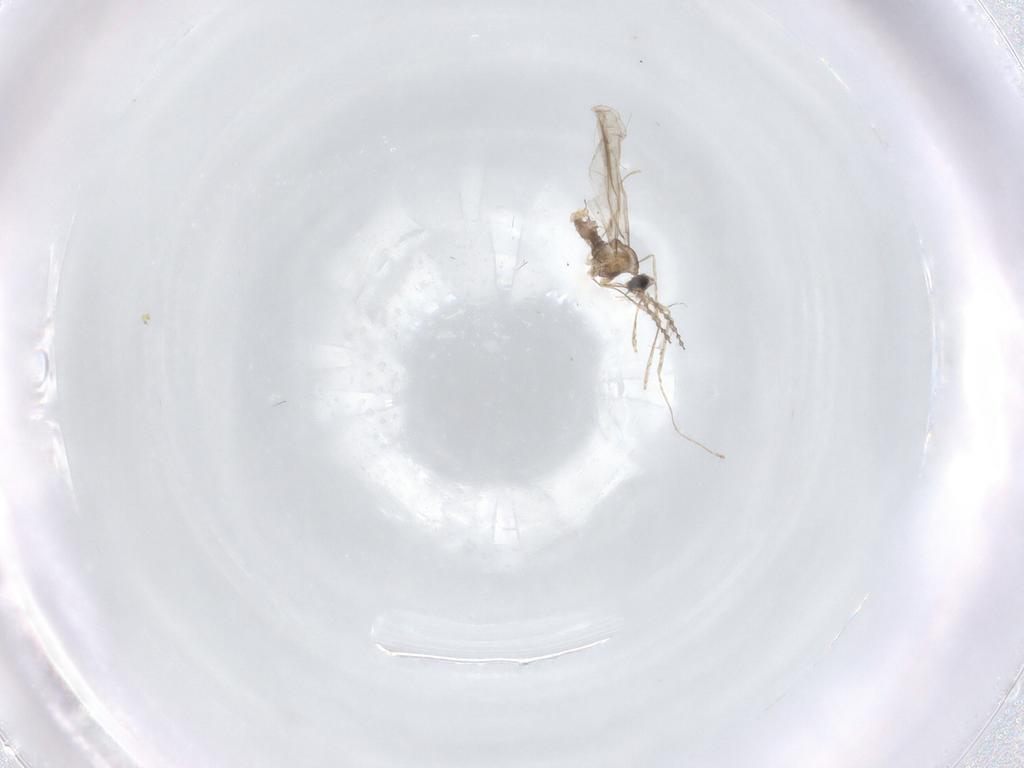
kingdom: Animalia
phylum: Arthropoda
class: Insecta
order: Diptera
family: Cecidomyiidae
